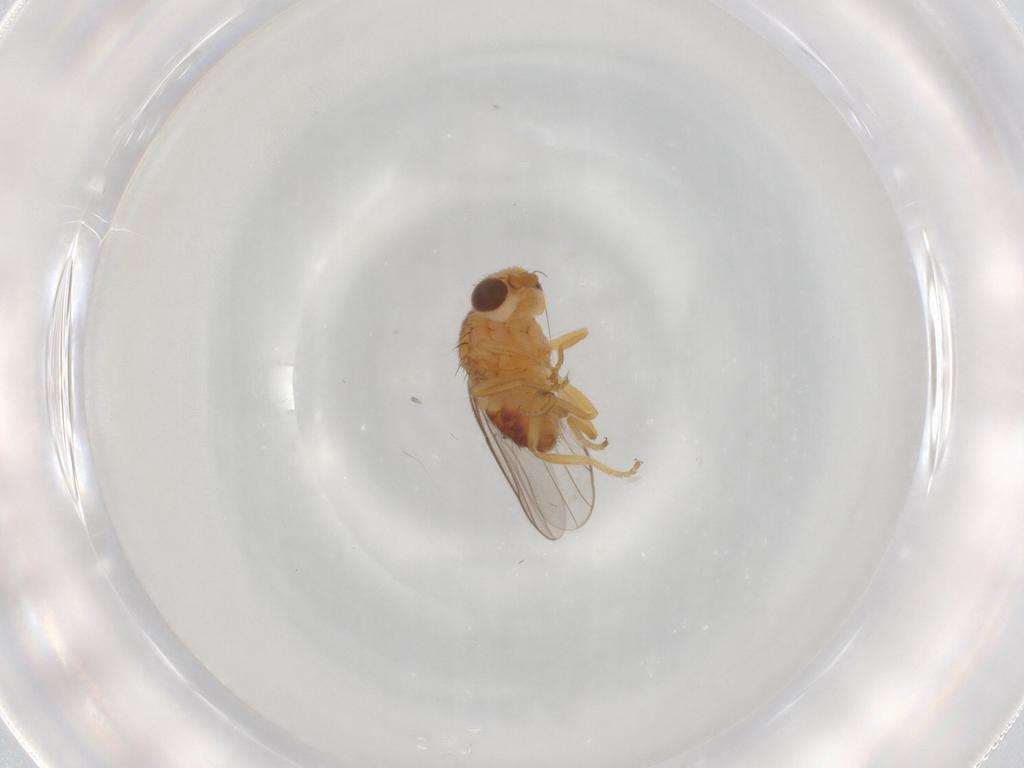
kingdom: Animalia
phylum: Arthropoda
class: Insecta
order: Diptera
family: Chloropidae
